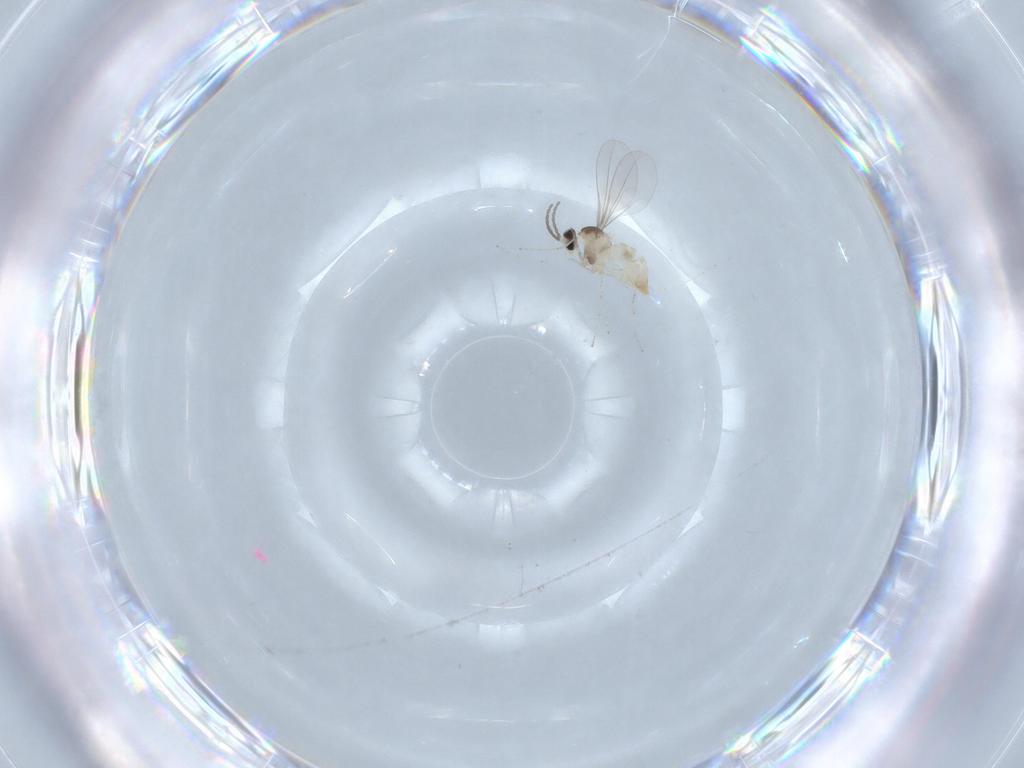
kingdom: Animalia
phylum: Arthropoda
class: Insecta
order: Diptera
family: Cecidomyiidae
